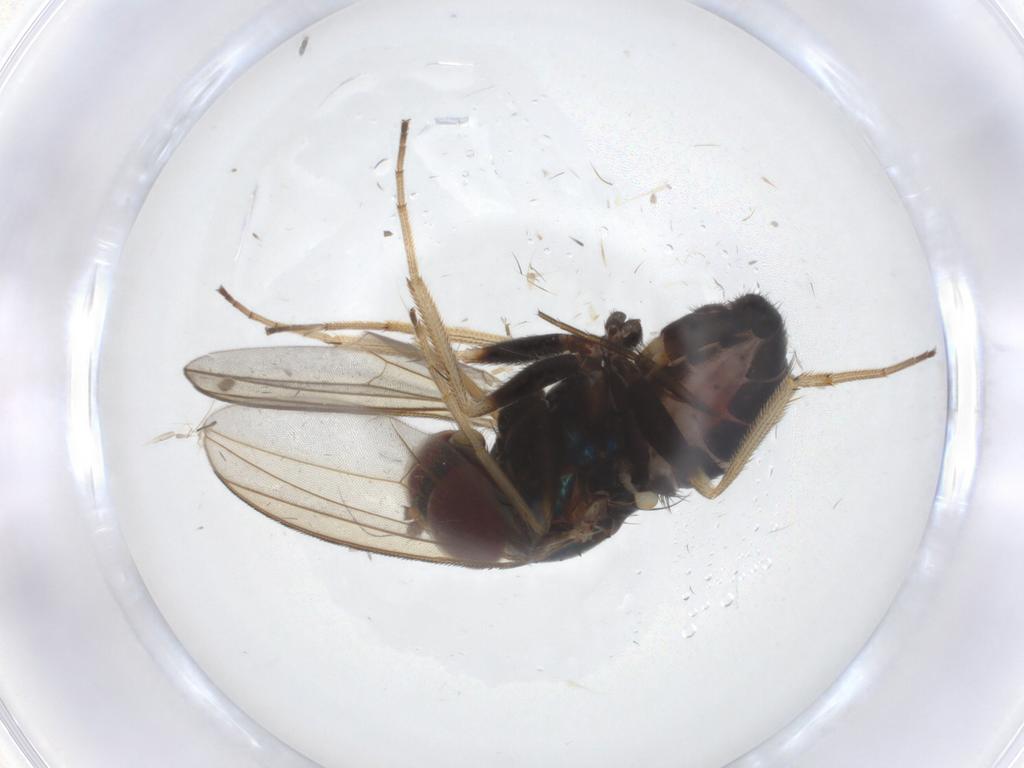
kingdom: Animalia
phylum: Arthropoda
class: Insecta
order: Diptera
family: Dolichopodidae
